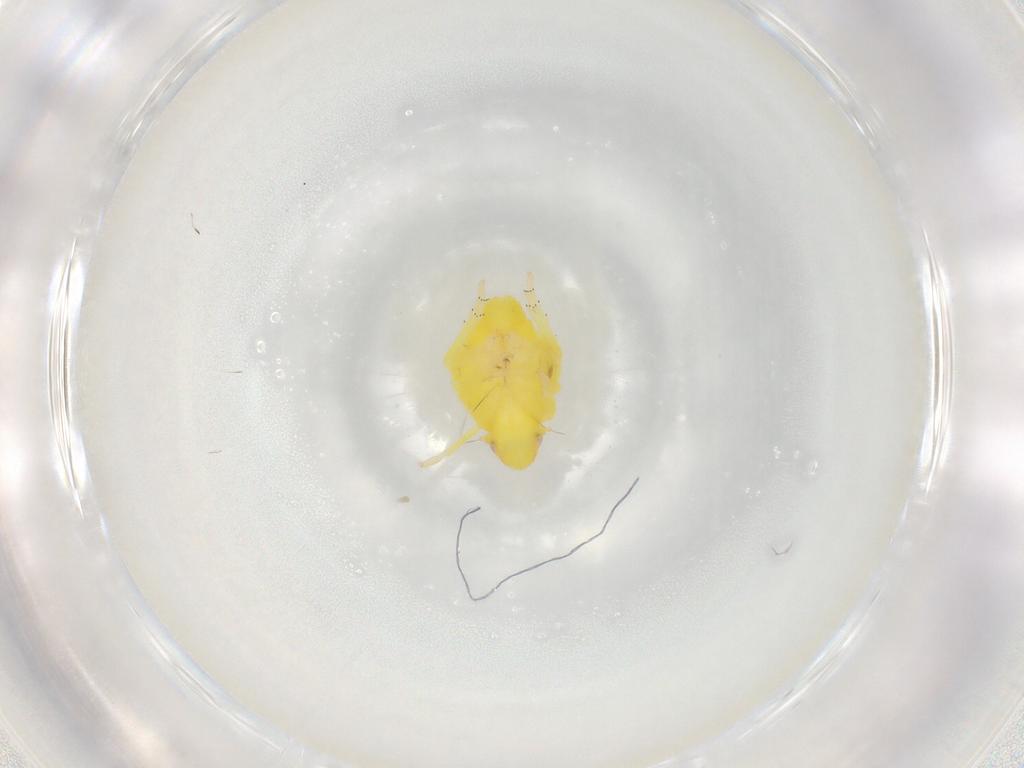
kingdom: Animalia
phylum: Arthropoda
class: Insecta
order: Hemiptera
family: Tropiduchidae
